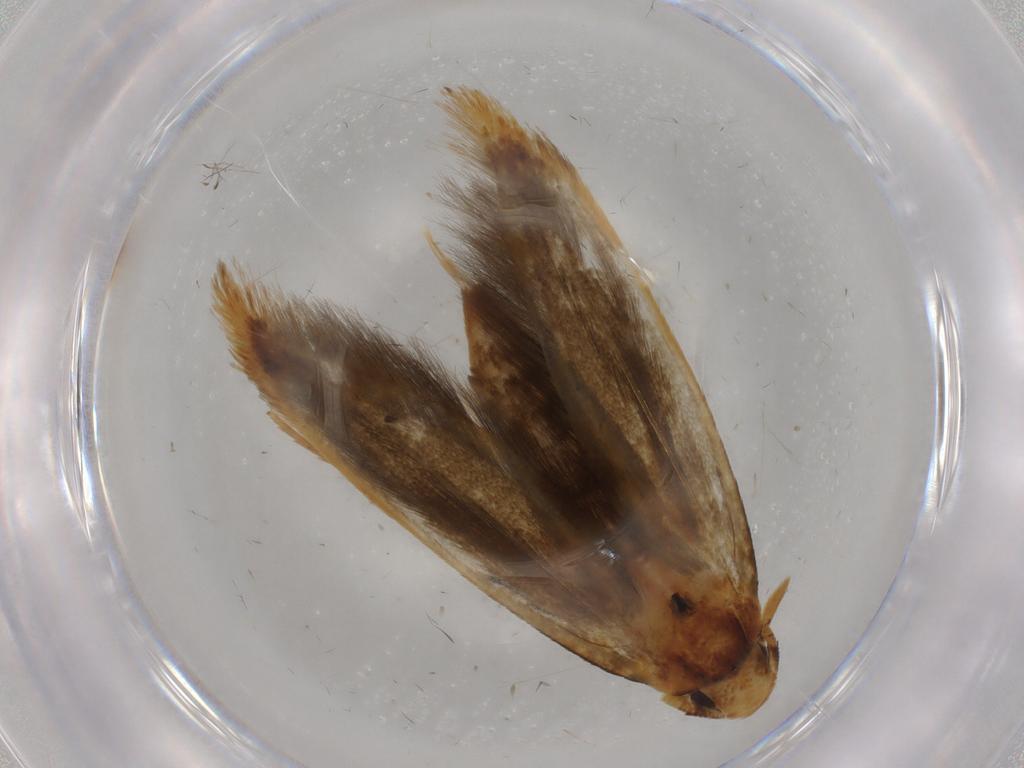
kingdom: Animalia
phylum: Arthropoda
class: Insecta
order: Lepidoptera
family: Tineidae
